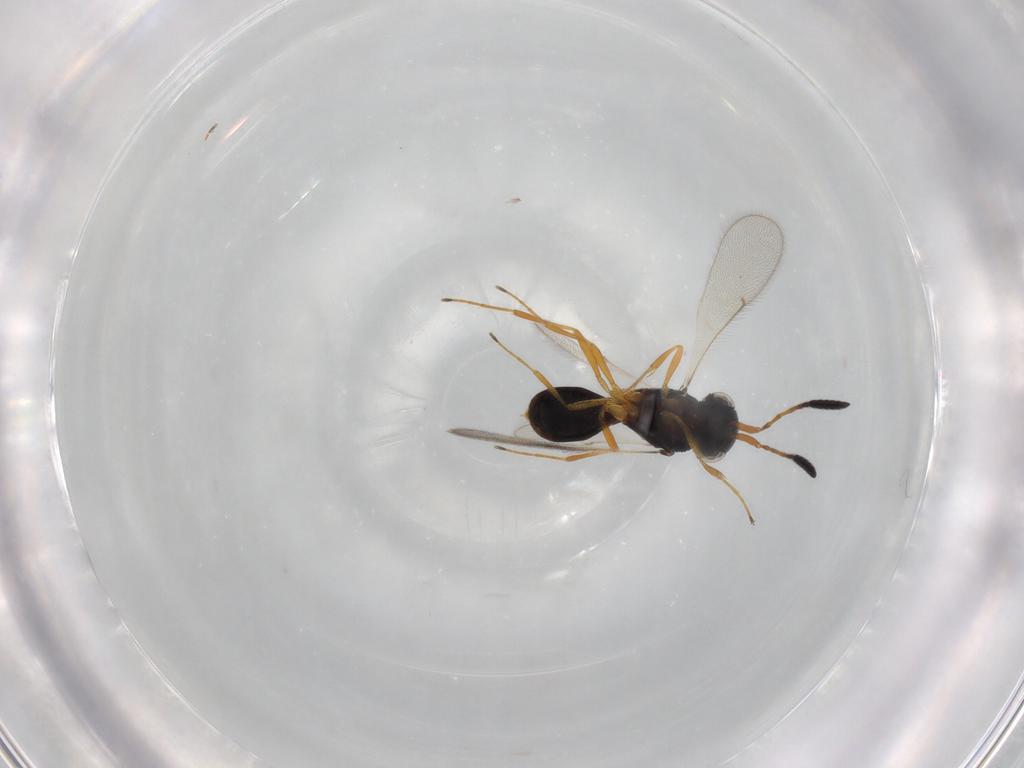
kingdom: Animalia
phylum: Arthropoda
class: Insecta
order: Hymenoptera
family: Scelionidae
